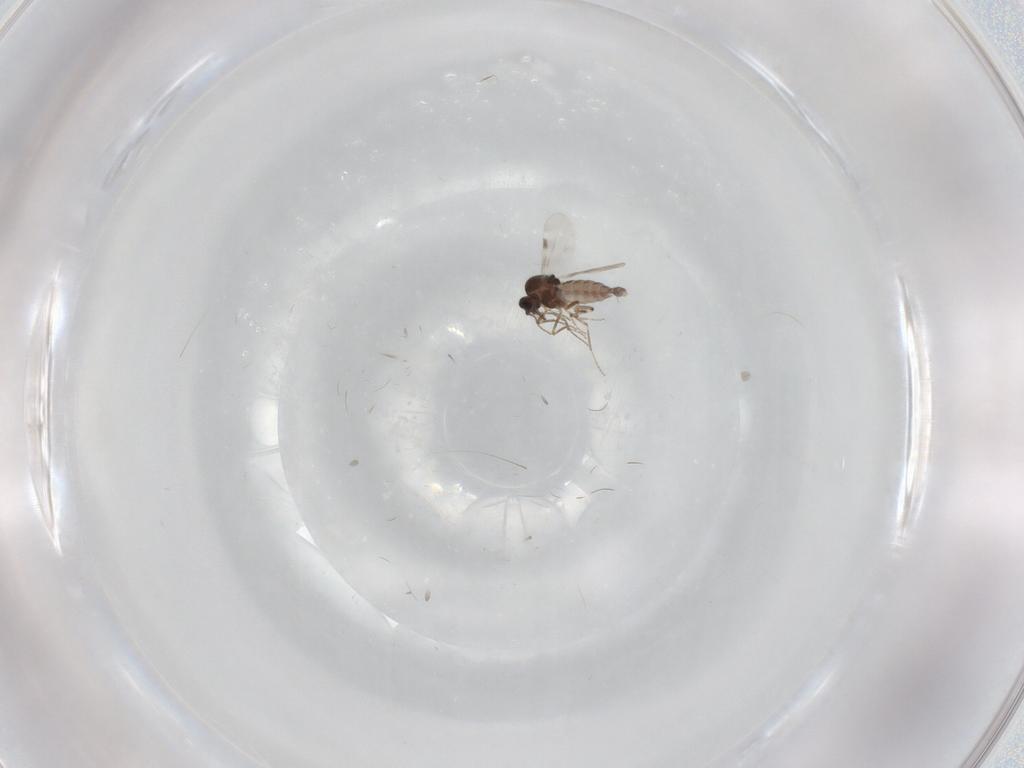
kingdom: Animalia
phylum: Arthropoda
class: Insecta
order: Diptera
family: Ceratopogonidae
